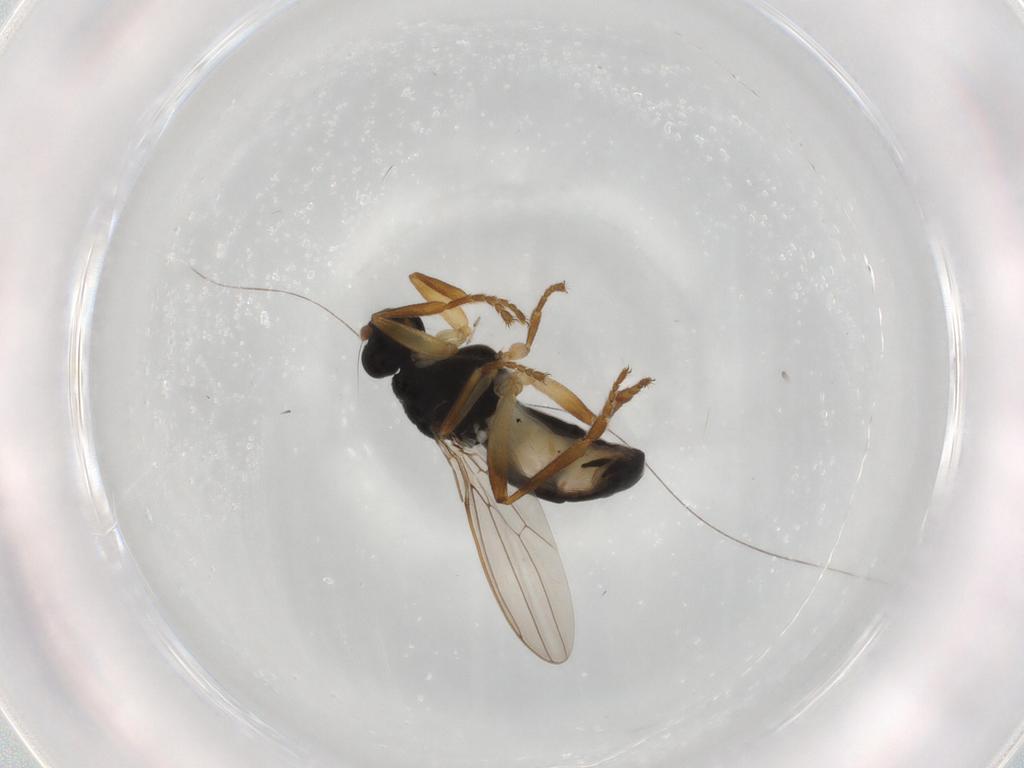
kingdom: Animalia
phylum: Arthropoda
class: Insecta
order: Diptera
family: Sphaeroceridae
